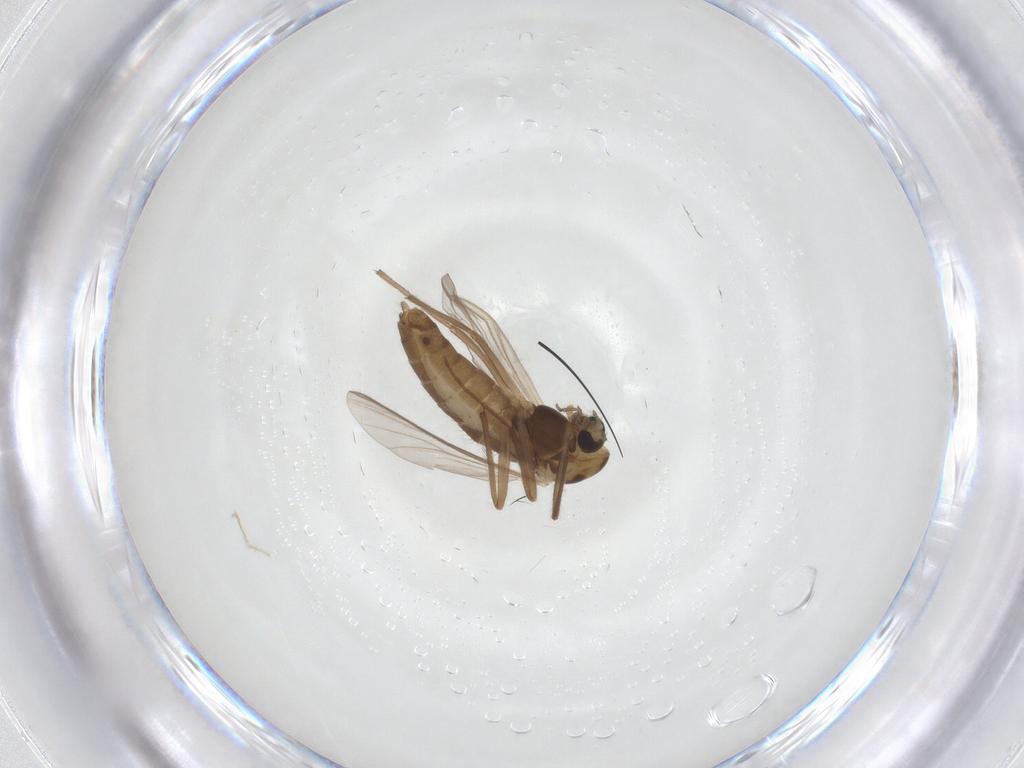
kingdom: Animalia
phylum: Arthropoda
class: Insecta
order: Diptera
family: Chironomidae
